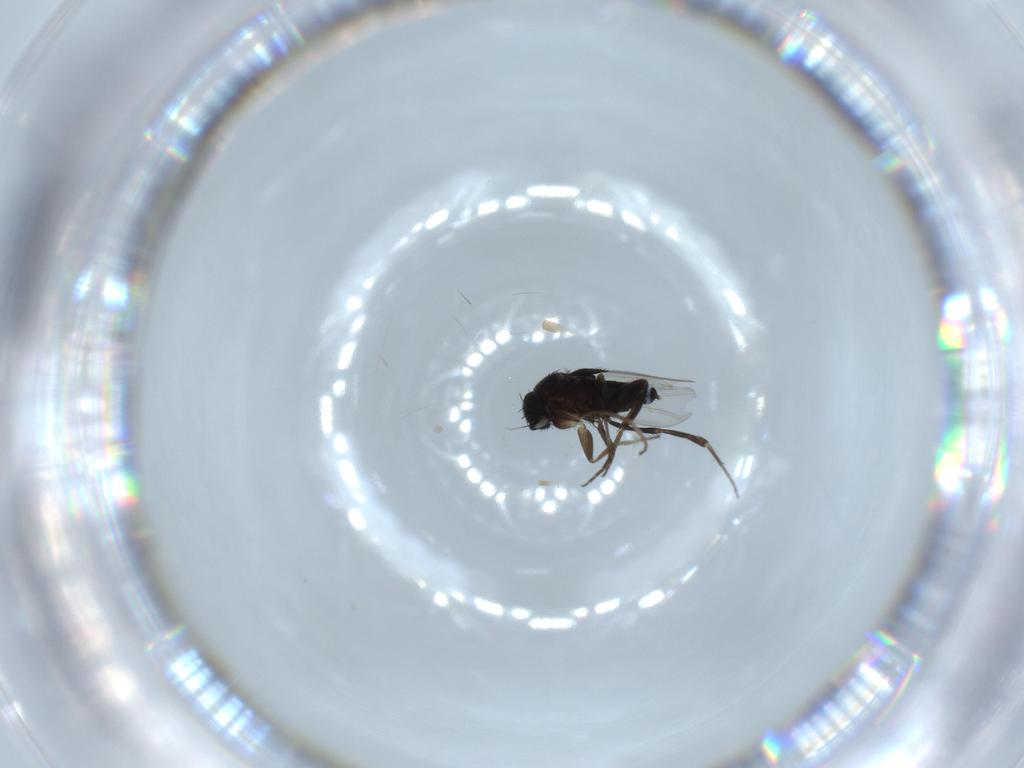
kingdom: Animalia
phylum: Arthropoda
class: Insecta
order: Diptera
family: Phoridae
